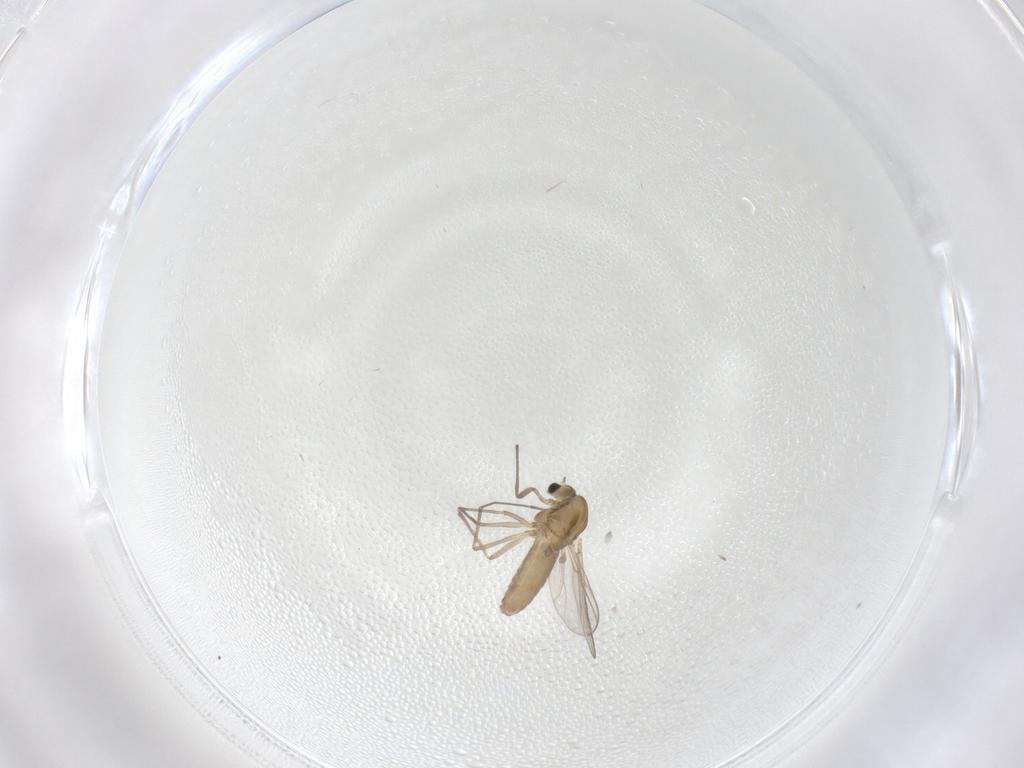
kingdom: Animalia
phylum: Arthropoda
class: Insecta
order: Diptera
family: Chironomidae
